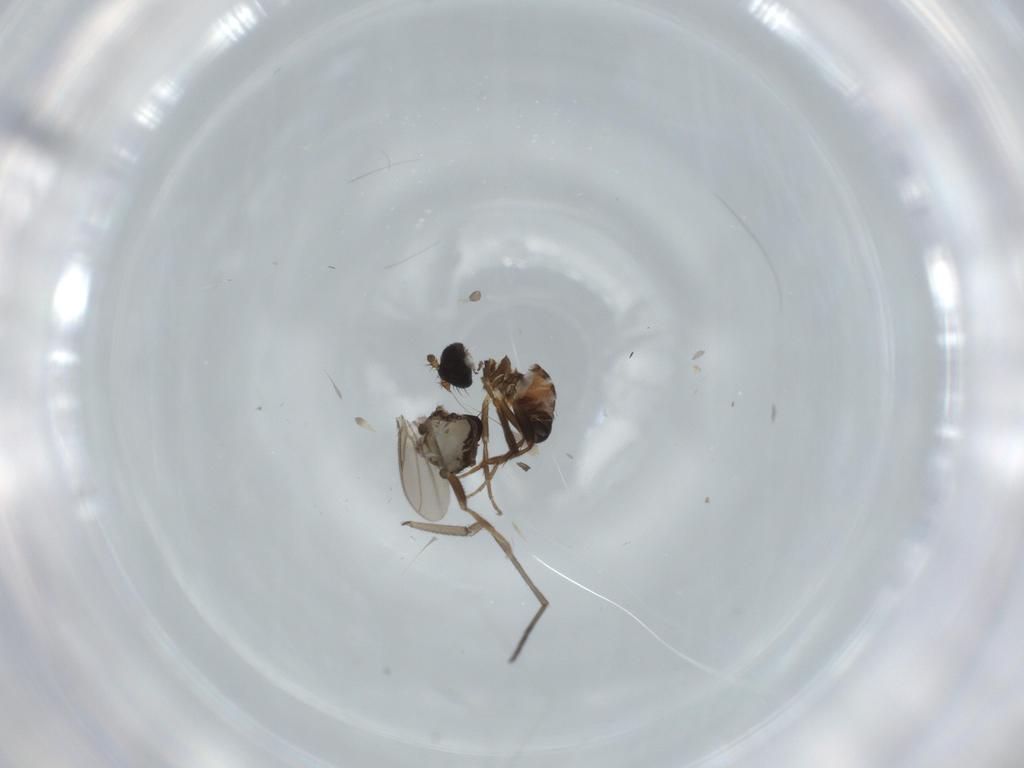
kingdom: Animalia
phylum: Arthropoda
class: Insecta
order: Diptera
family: Sphaeroceridae
